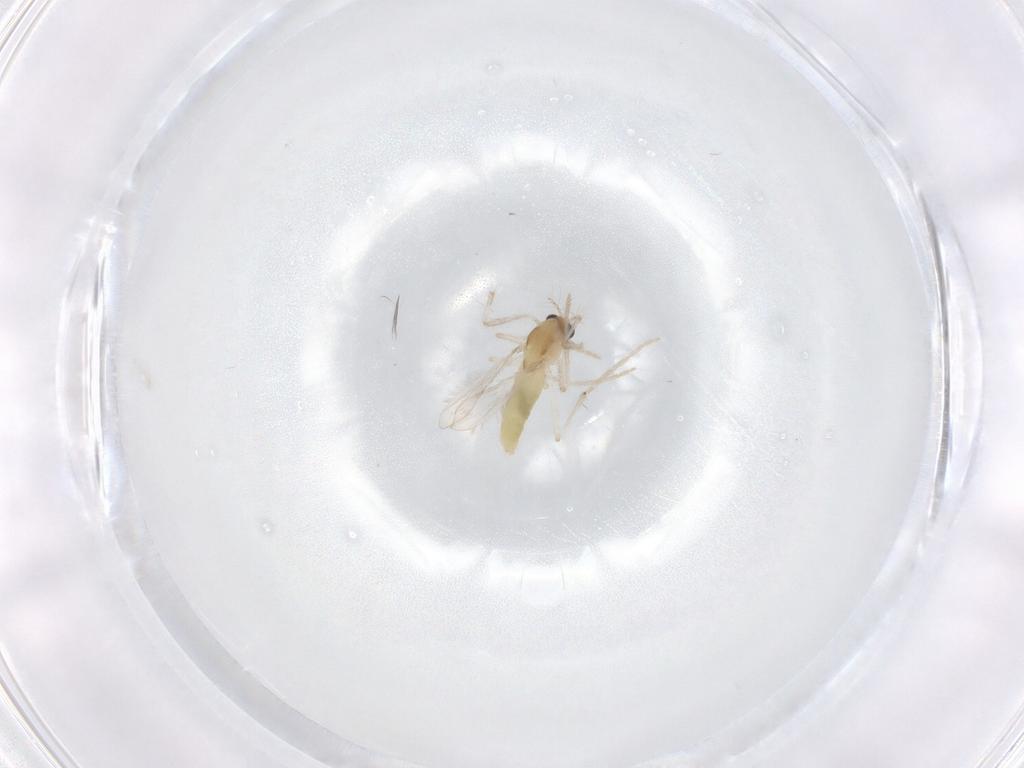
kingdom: Animalia
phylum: Arthropoda
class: Insecta
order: Diptera
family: Chironomidae
